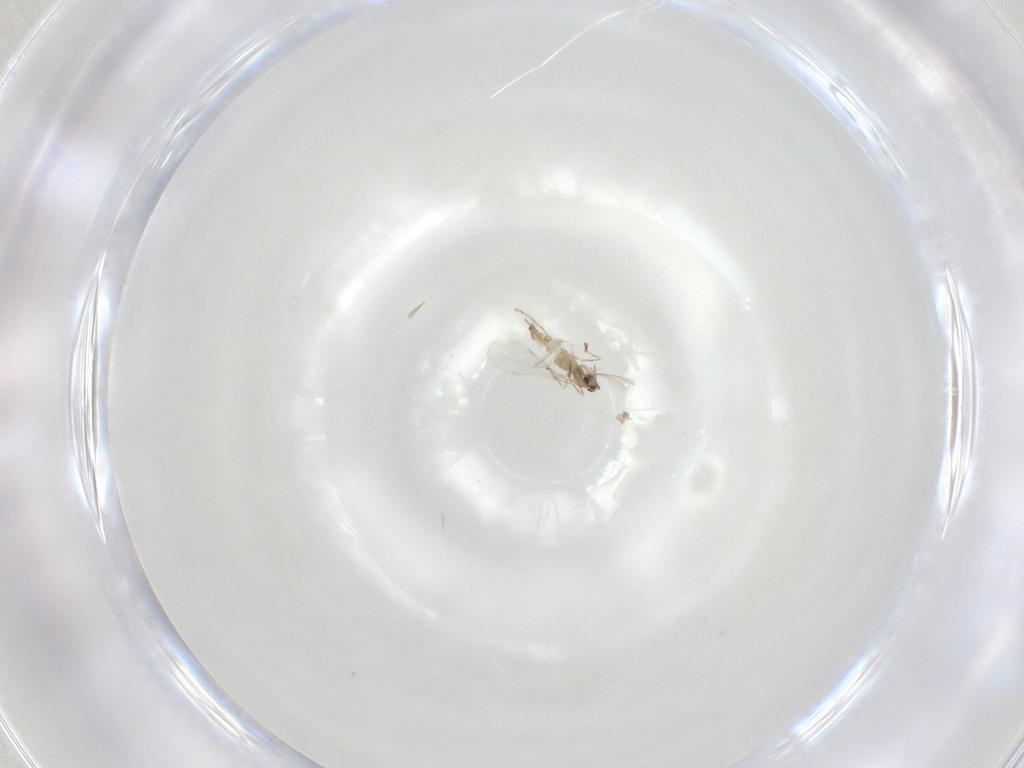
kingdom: Animalia
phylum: Arthropoda
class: Insecta
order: Diptera
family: Cecidomyiidae
